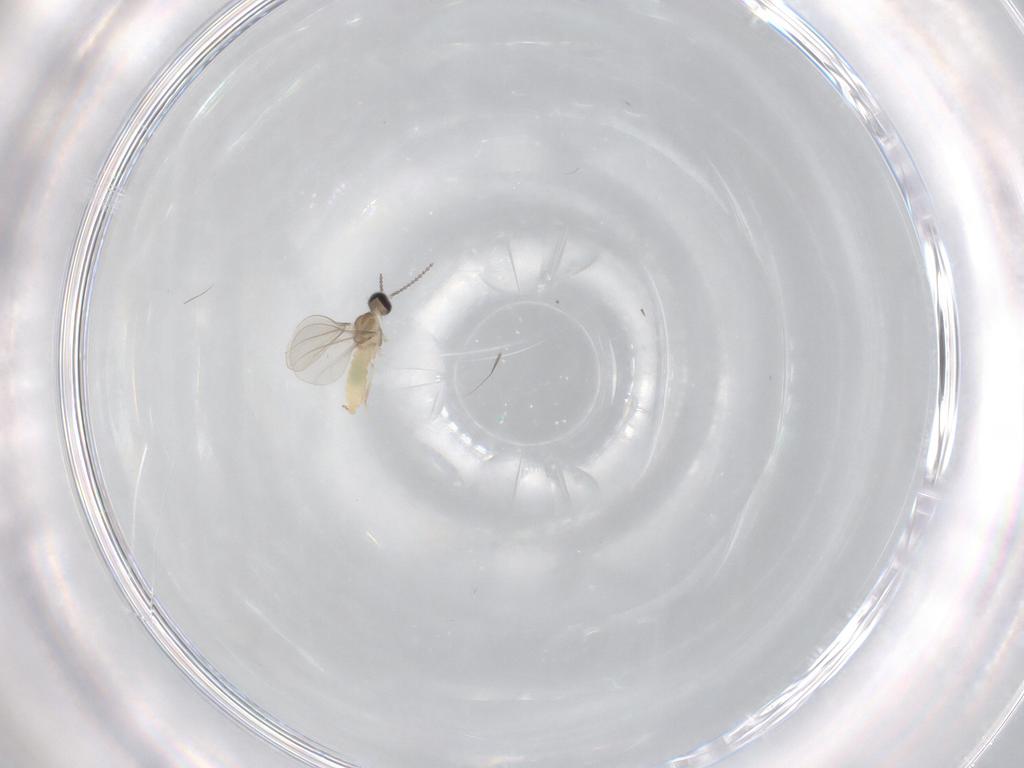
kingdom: Animalia
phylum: Arthropoda
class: Insecta
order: Diptera
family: Cecidomyiidae
